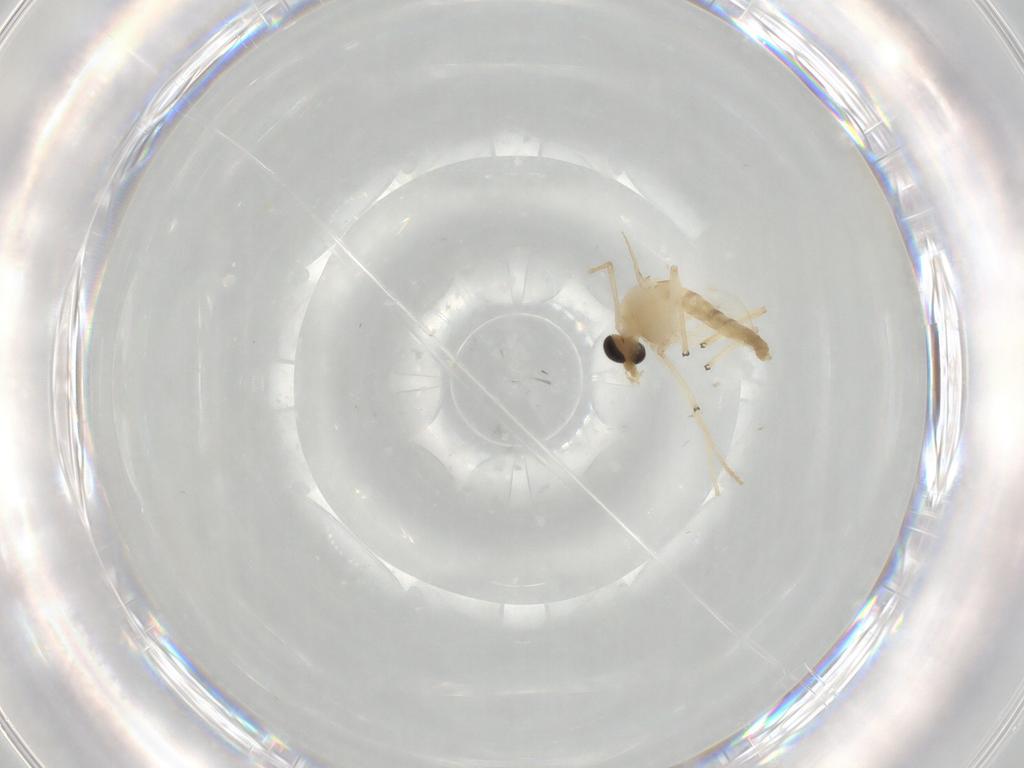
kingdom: Animalia
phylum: Arthropoda
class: Insecta
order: Diptera
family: Chironomidae
